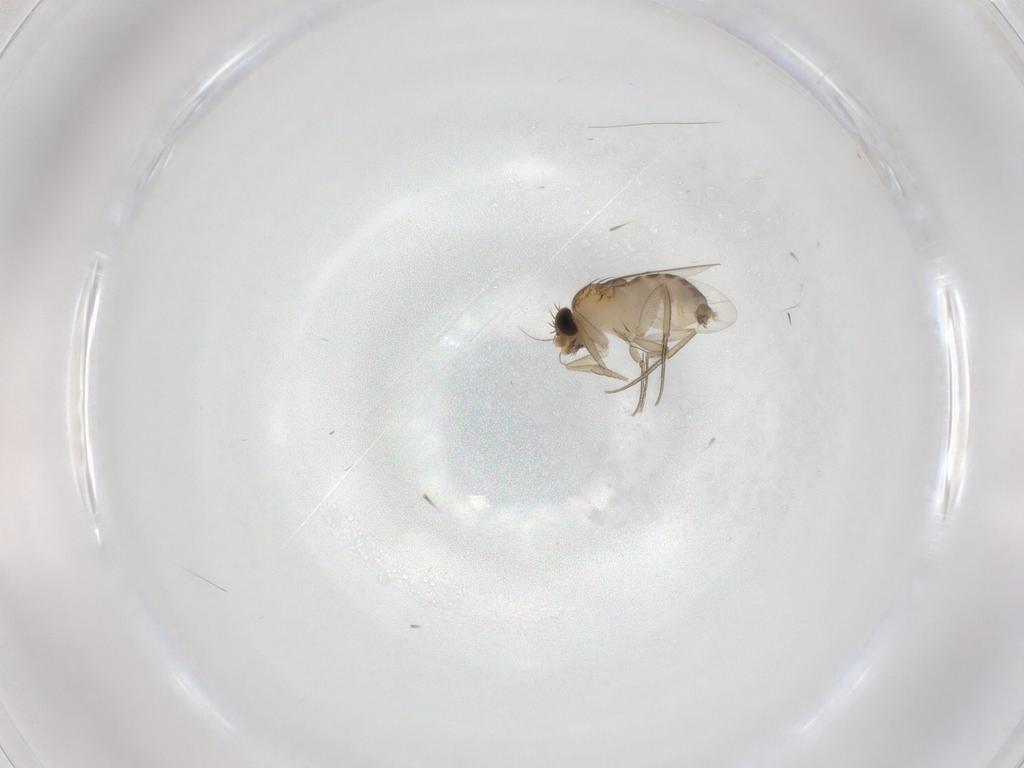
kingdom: Animalia
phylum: Arthropoda
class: Insecta
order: Diptera
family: Phoridae
